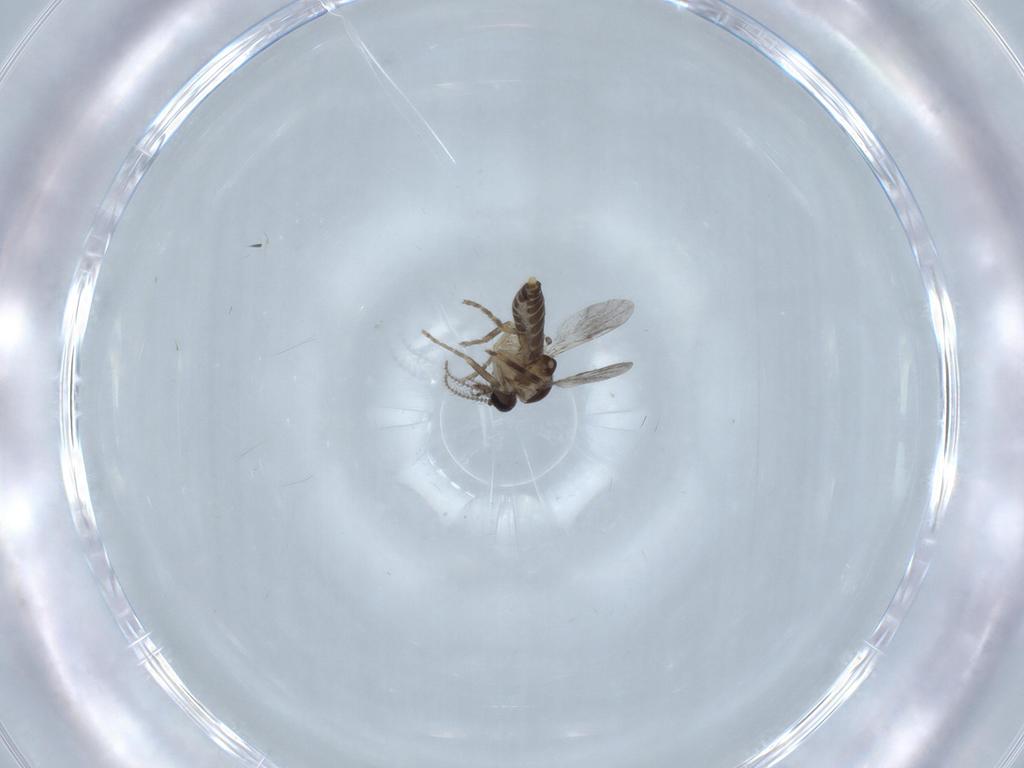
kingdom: Animalia
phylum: Arthropoda
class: Insecta
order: Diptera
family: Ceratopogonidae
